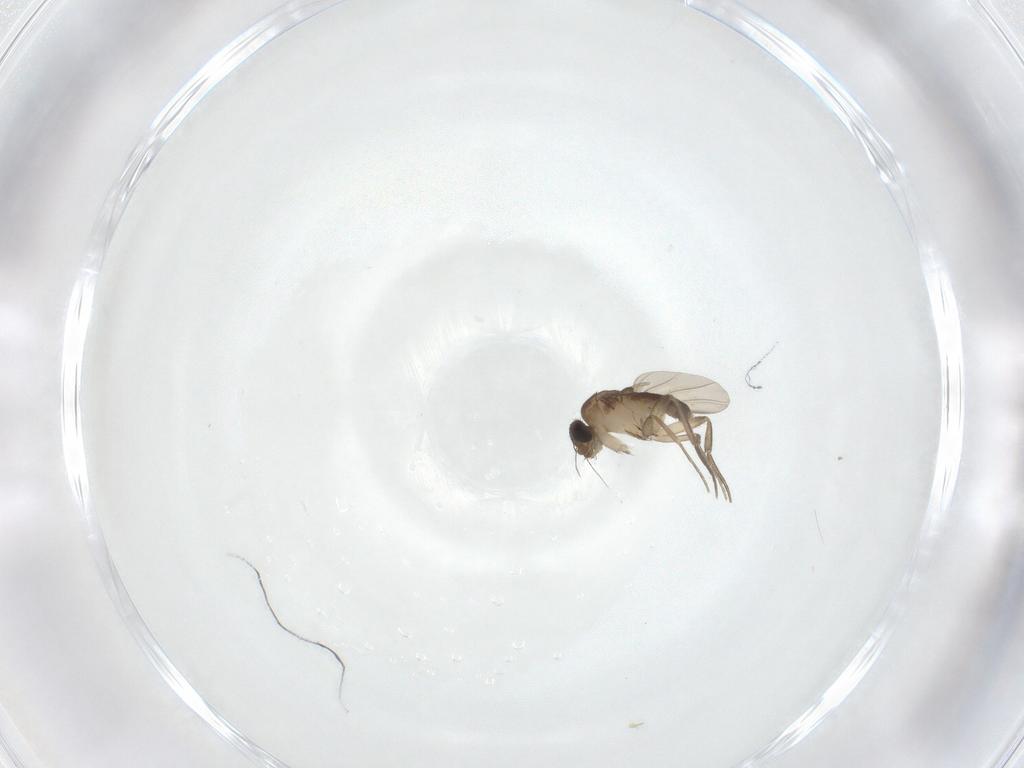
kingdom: Animalia
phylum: Arthropoda
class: Insecta
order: Diptera
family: Phoridae
